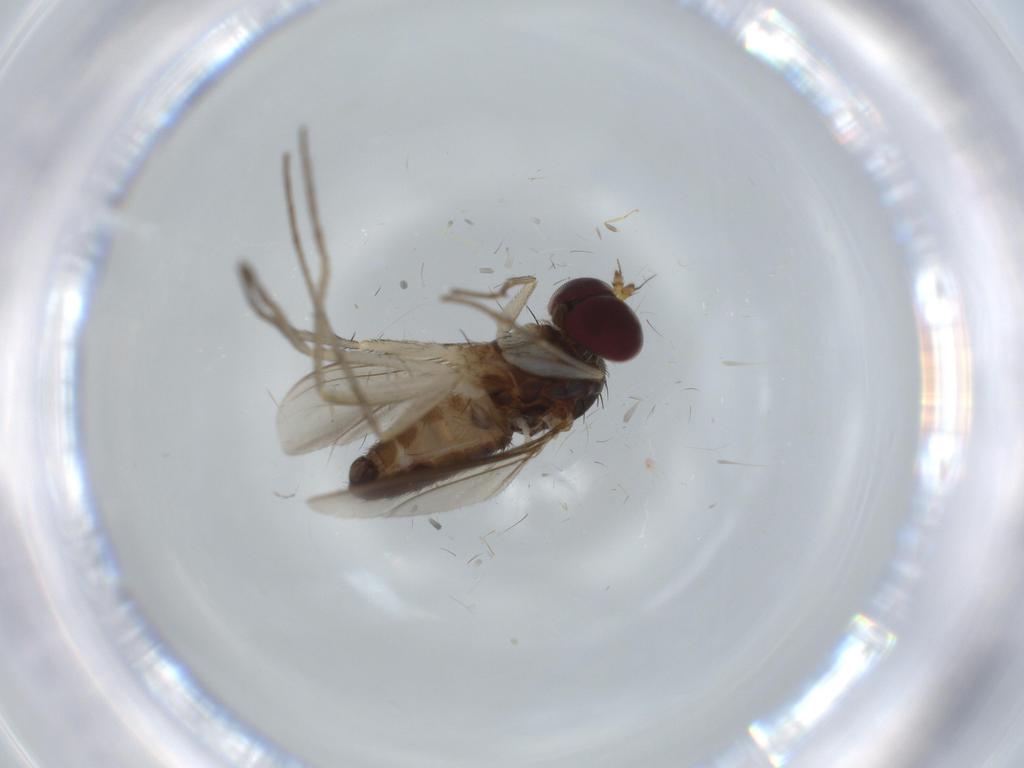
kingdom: Animalia
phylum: Arthropoda
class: Insecta
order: Diptera
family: Dolichopodidae
